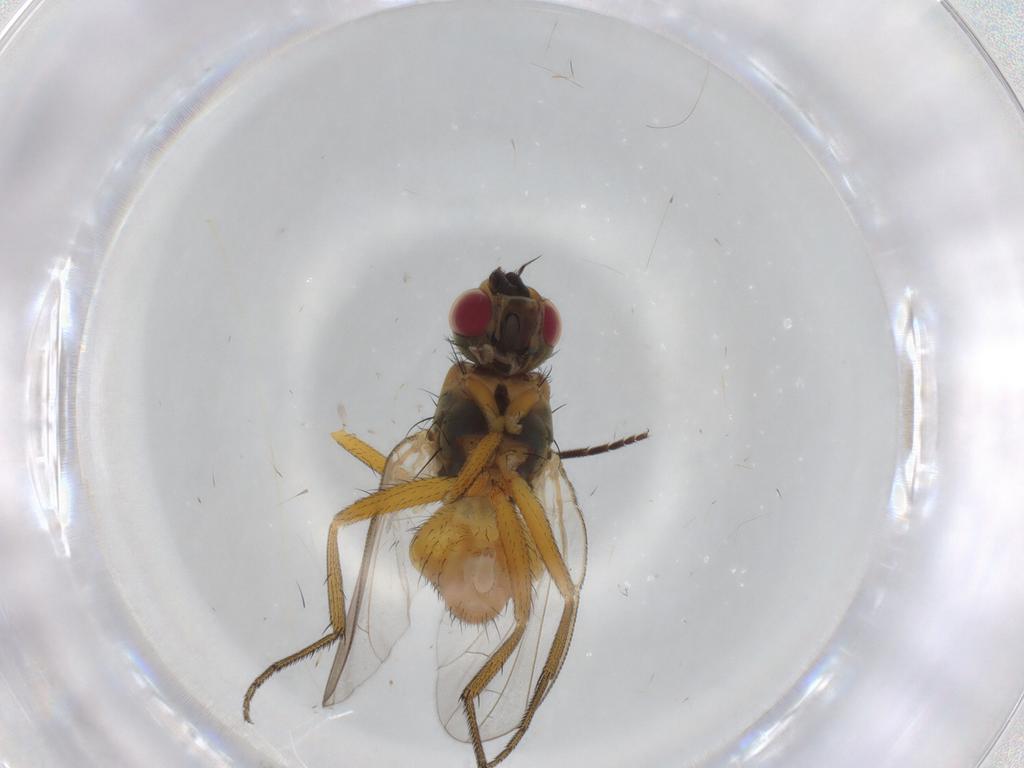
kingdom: Animalia
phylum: Arthropoda
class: Insecta
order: Diptera
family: Muscidae
